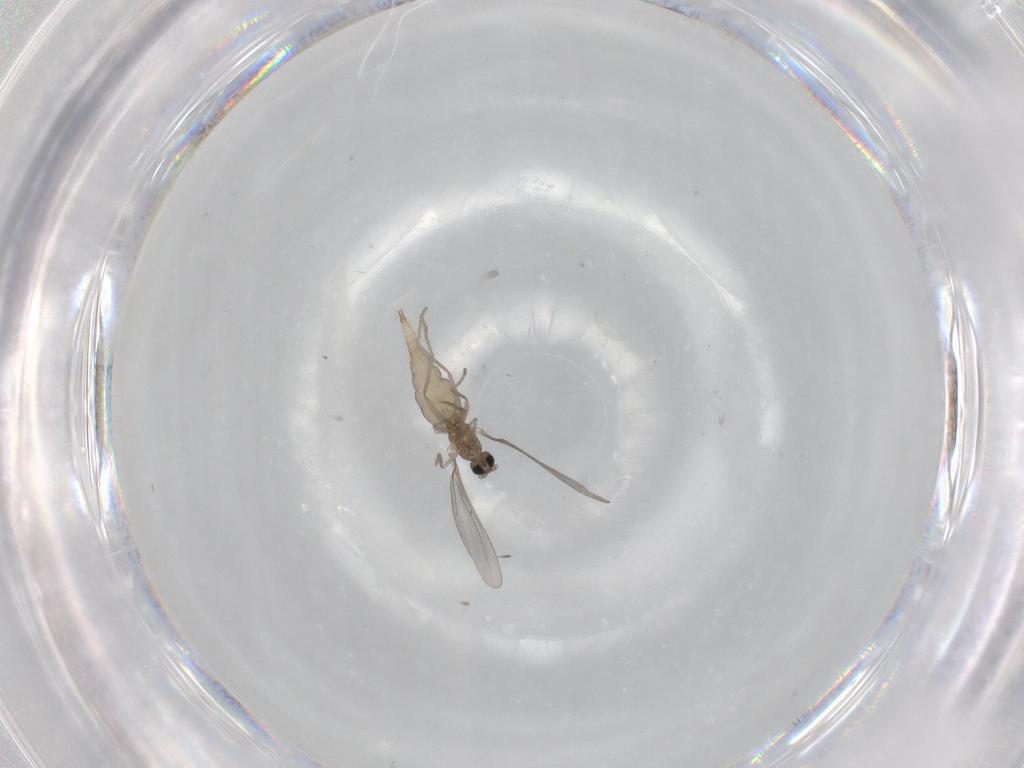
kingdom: Animalia
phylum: Arthropoda
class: Insecta
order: Diptera
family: Cecidomyiidae
